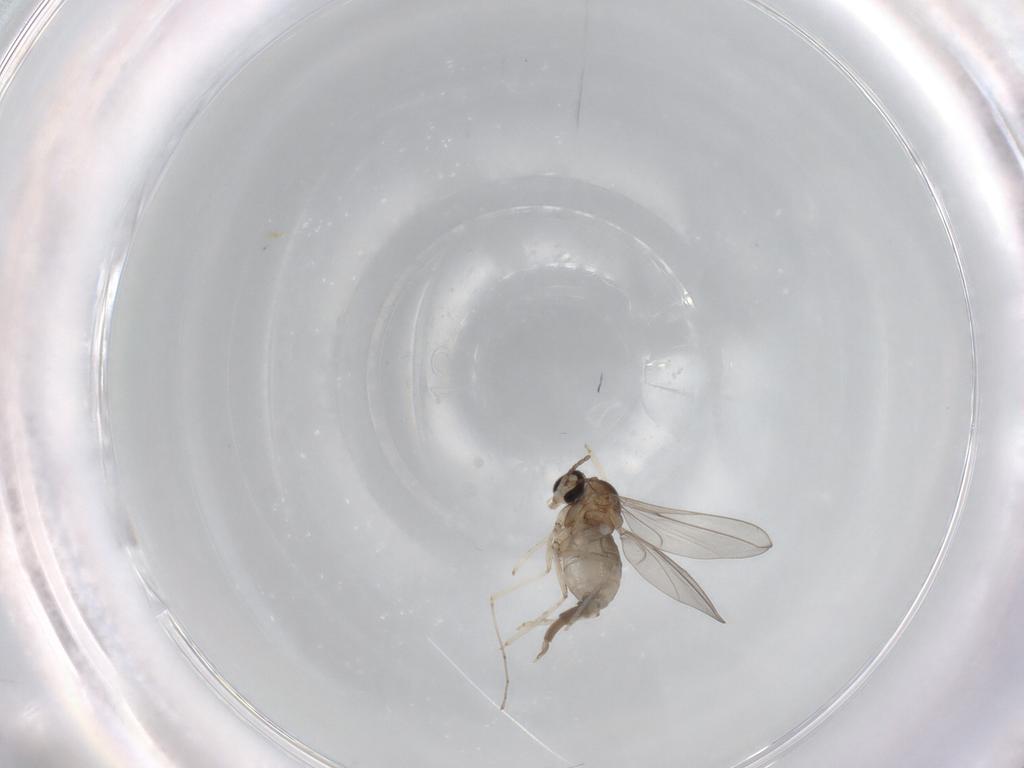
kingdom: Animalia
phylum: Arthropoda
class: Insecta
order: Diptera
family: Cecidomyiidae
